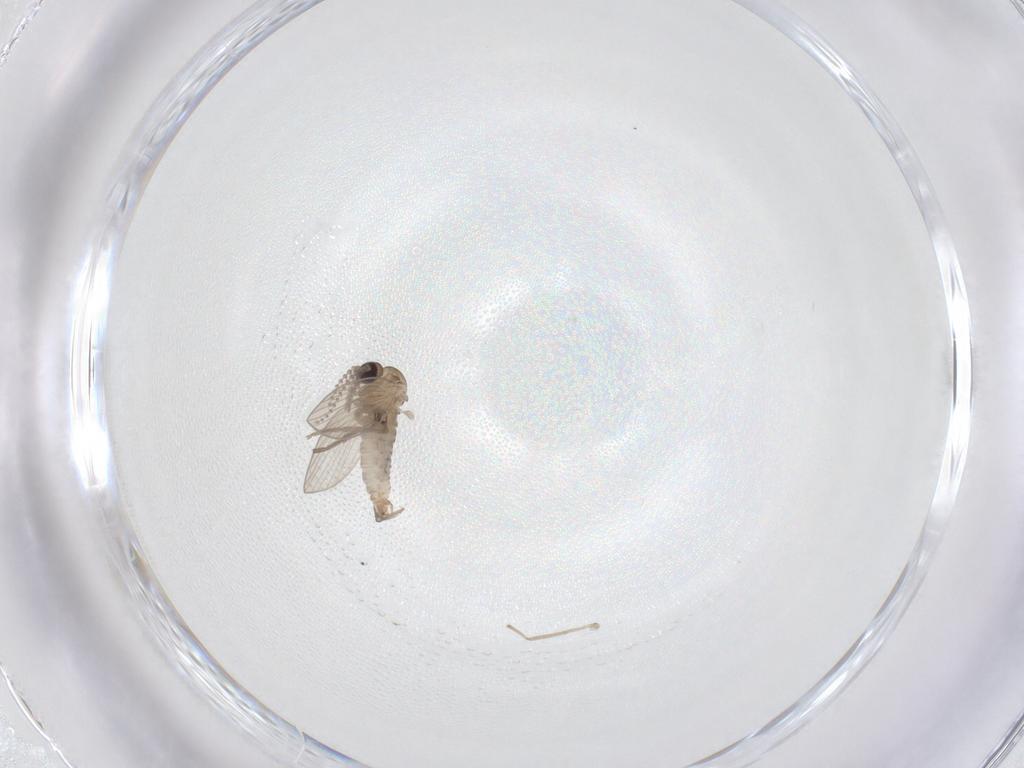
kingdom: Animalia
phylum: Arthropoda
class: Insecta
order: Diptera
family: Psychodidae
